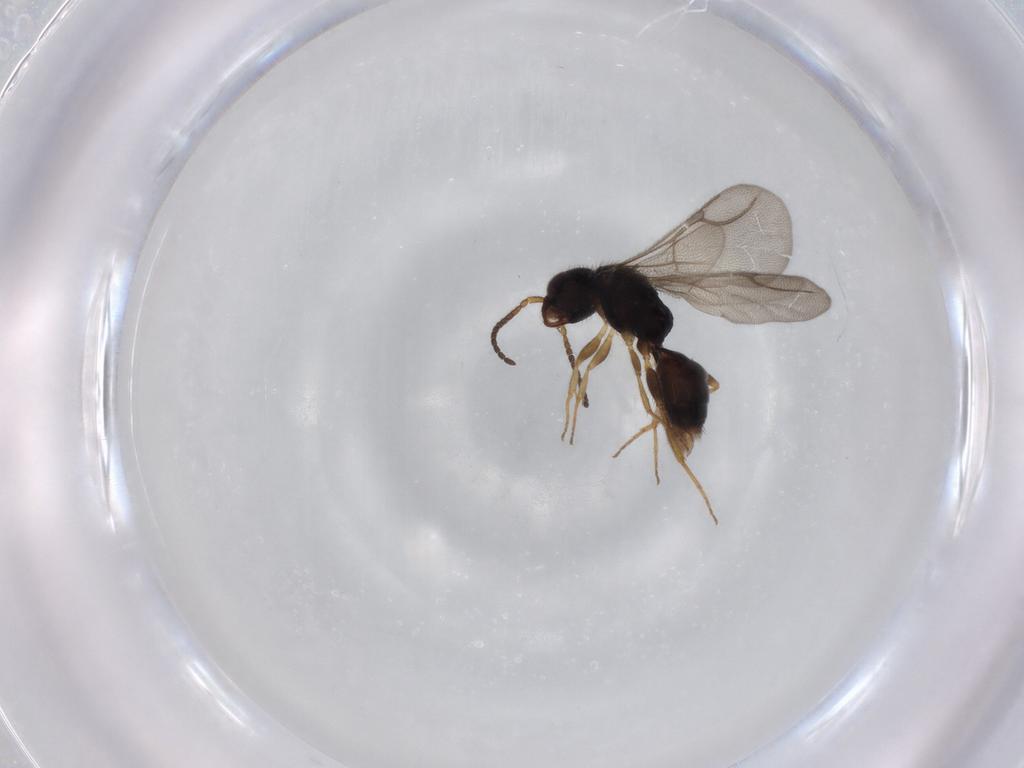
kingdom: Animalia
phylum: Arthropoda
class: Insecta
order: Hymenoptera
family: Bethylidae
